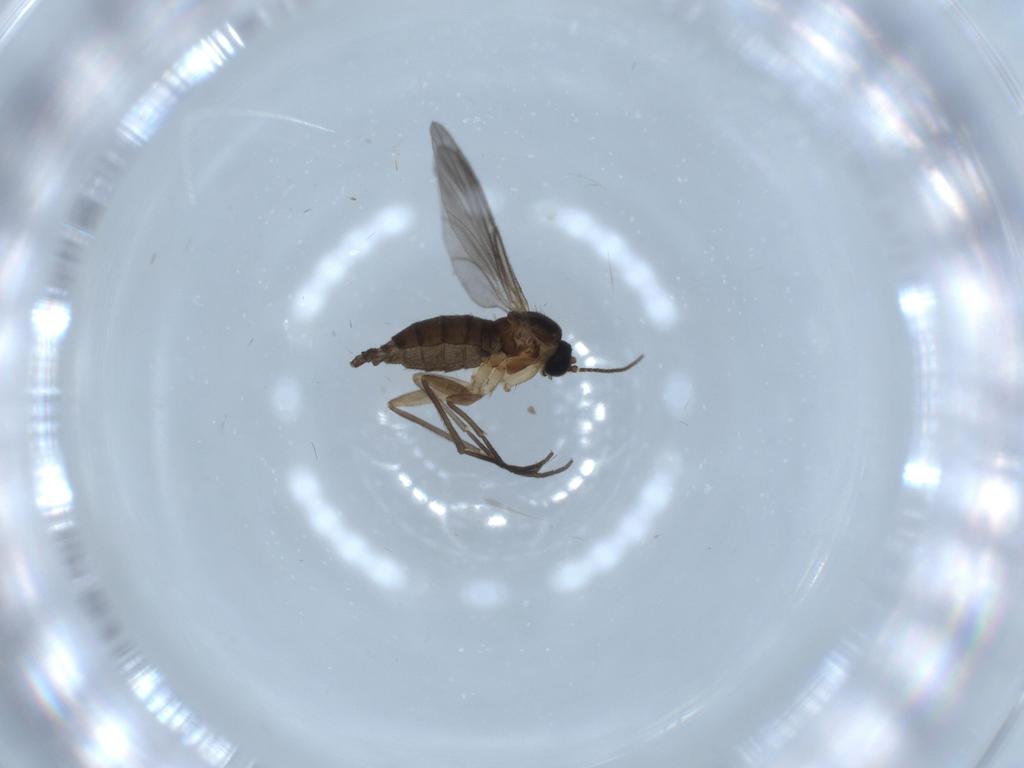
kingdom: Animalia
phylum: Arthropoda
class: Insecta
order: Diptera
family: Sciaridae
